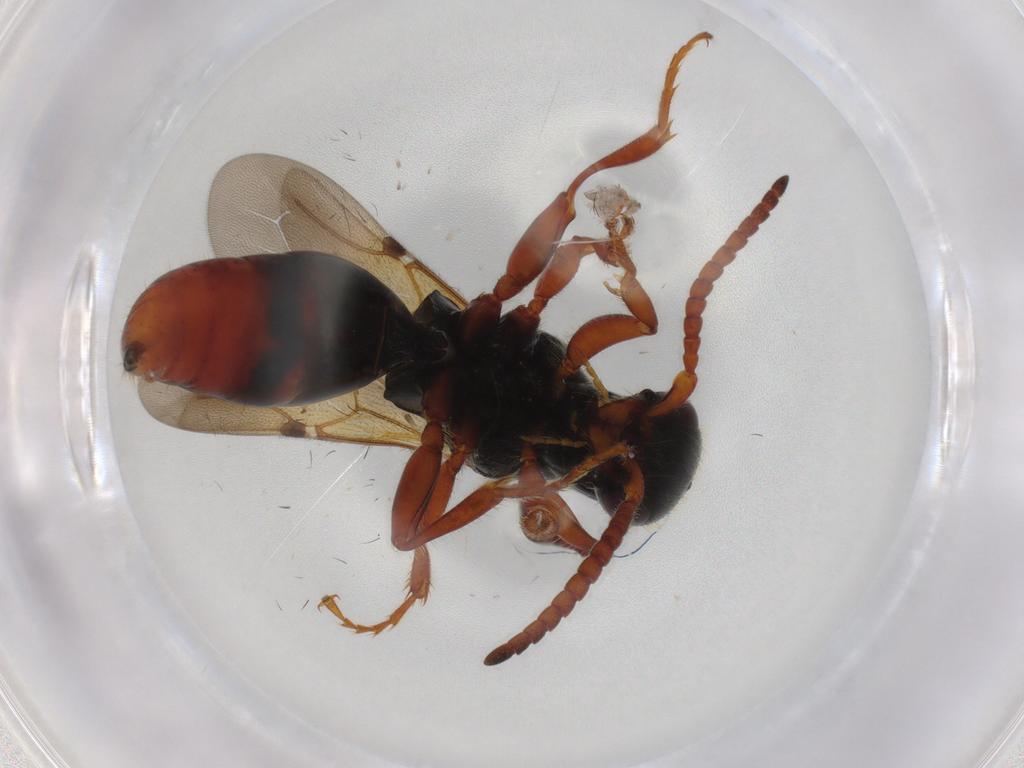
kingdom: Animalia
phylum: Arthropoda
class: Insecta
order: Hymenoptera
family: Bethylidae
